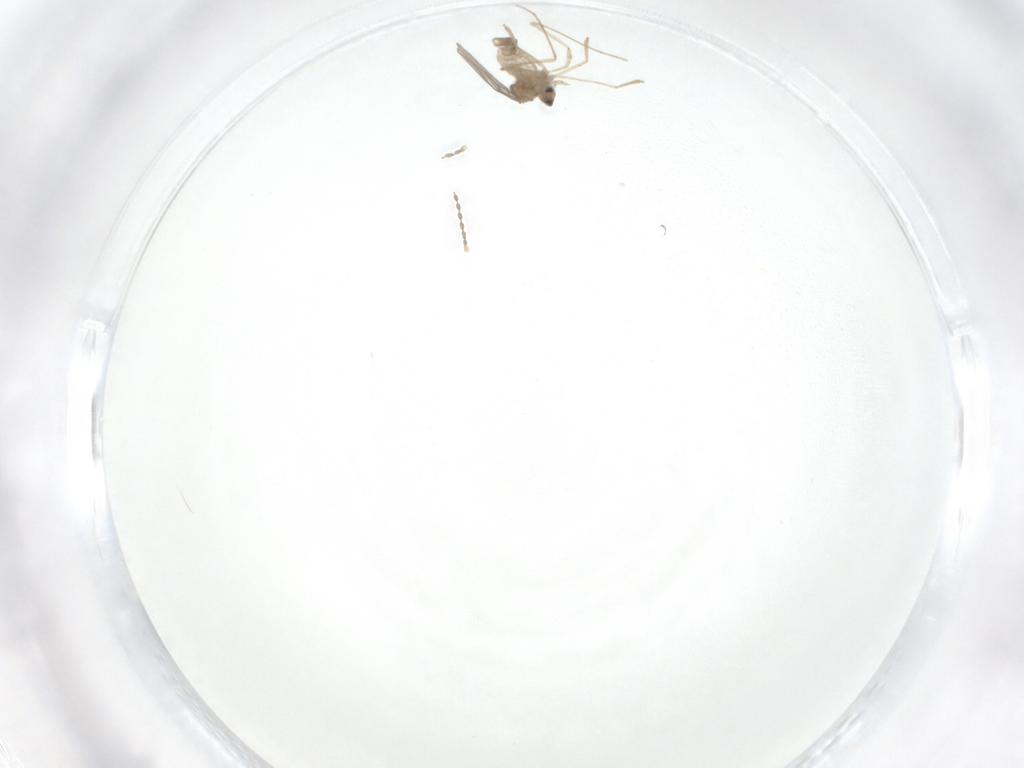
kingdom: Animalia
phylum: Arthropoda
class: Insecta
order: Diptera
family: Cecidomyiidae
